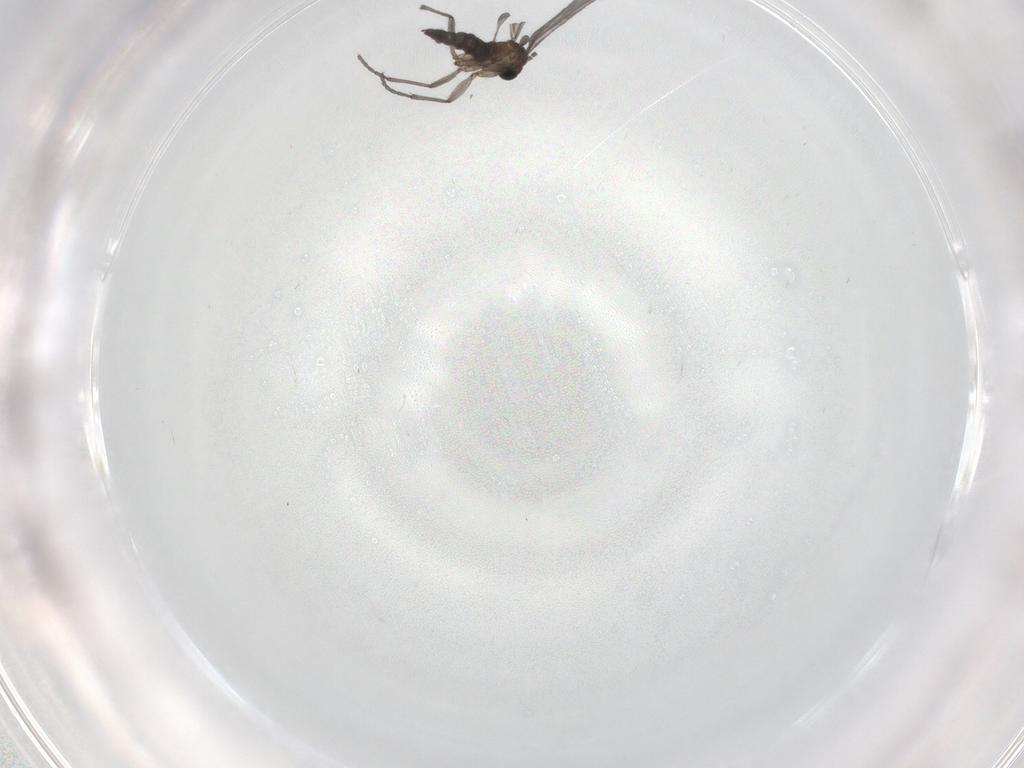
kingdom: Animalia
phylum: Arthropoda
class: Insecta
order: Diptera
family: Sciaridae
